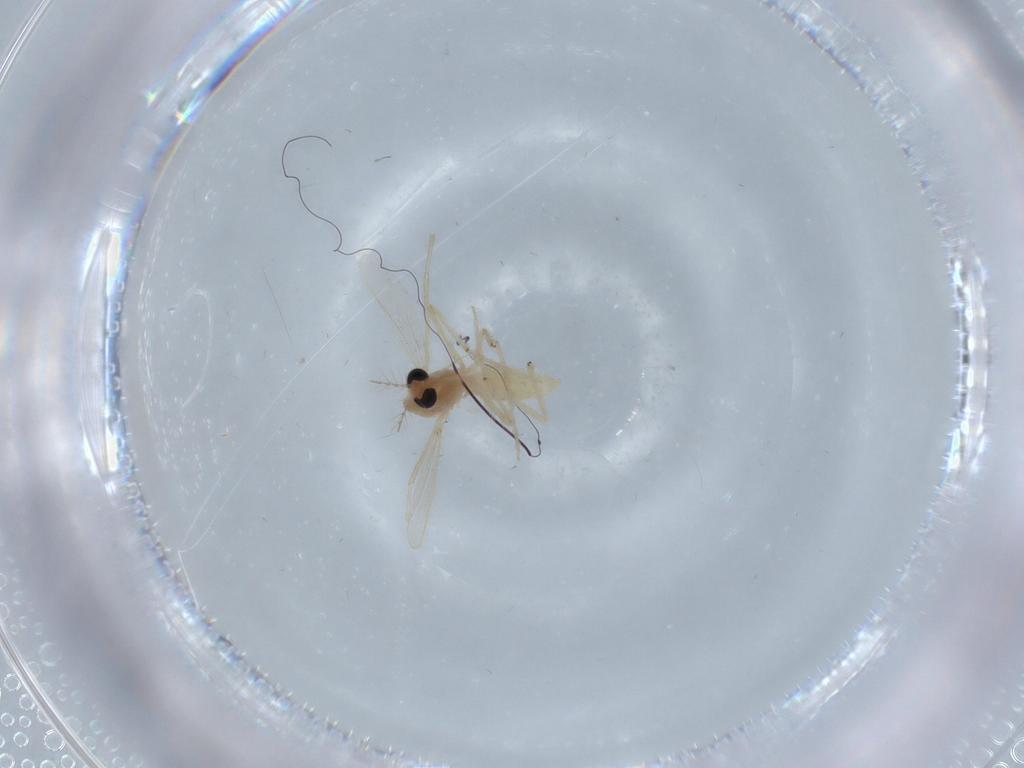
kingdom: Animalia
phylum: Arthropoda
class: Insecta
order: Diptera
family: Chironomidae
